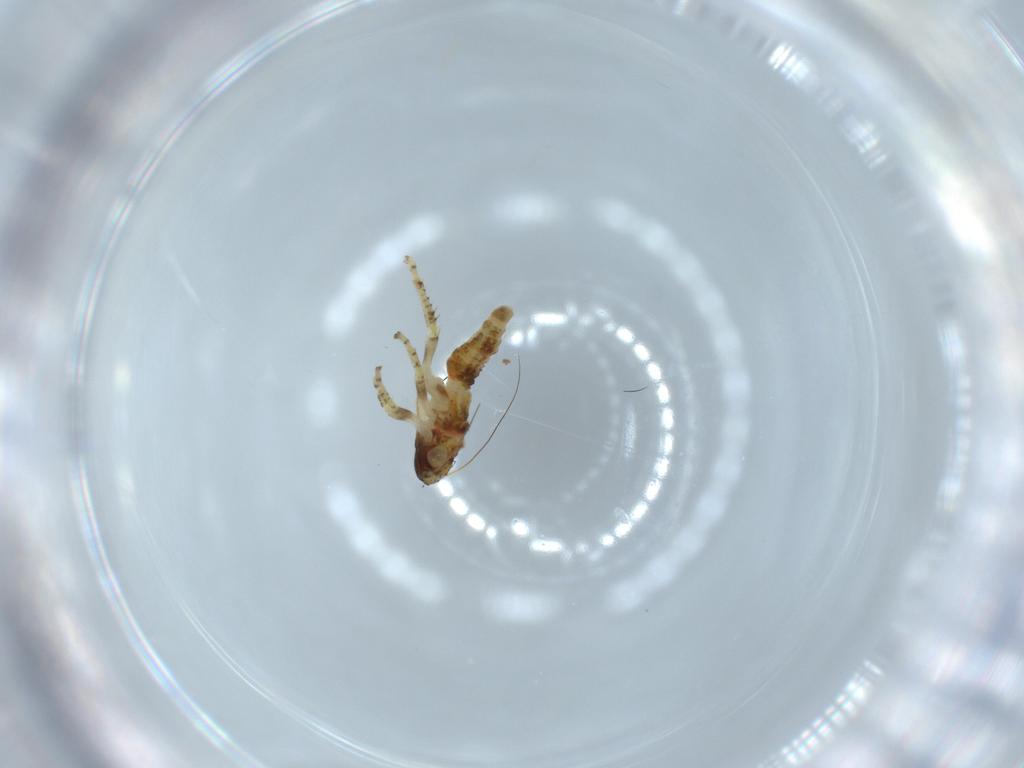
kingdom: Animalia
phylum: Arthropoda
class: Insecta
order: Hemiptera
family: Cicadellidae
